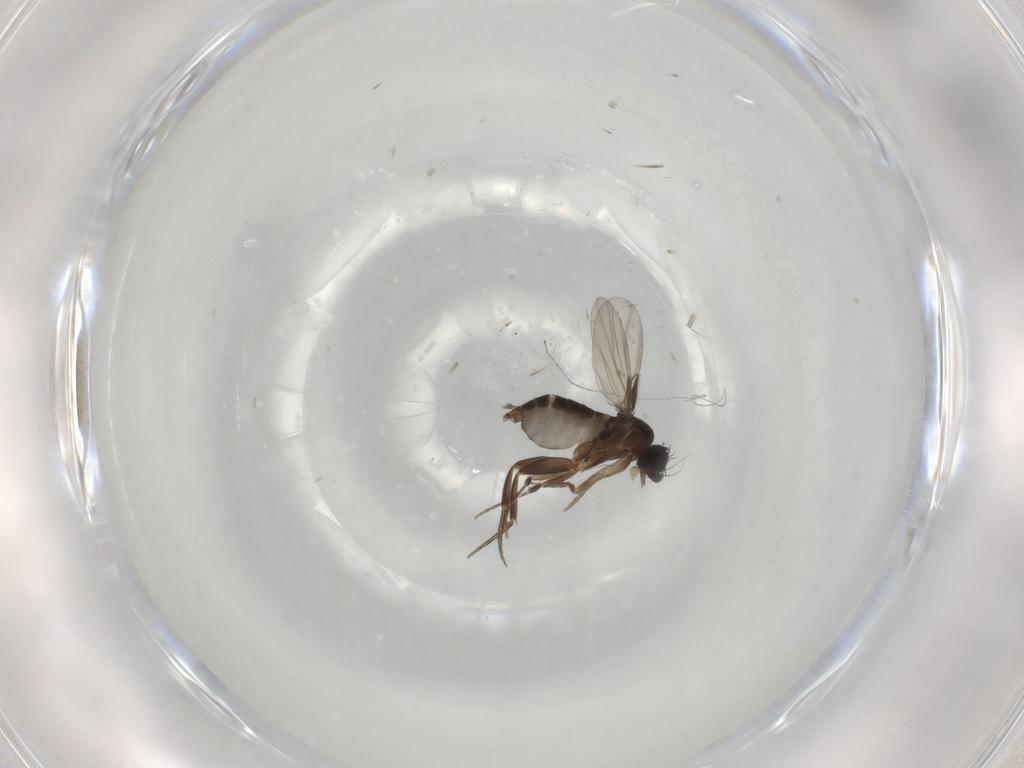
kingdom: Animalia
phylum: Arthropoda
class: Insecta
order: Diptera
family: Phoridae
